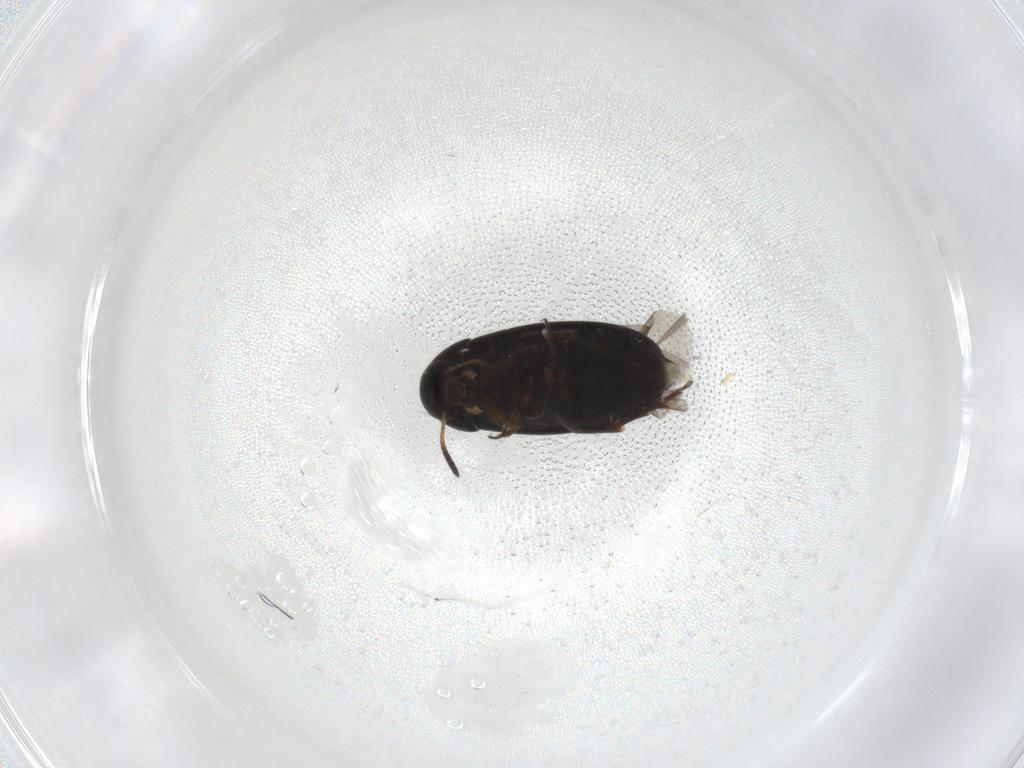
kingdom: Animalia
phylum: Arthropoda
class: Insecta
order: Coleoptera
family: Scraptiidae
